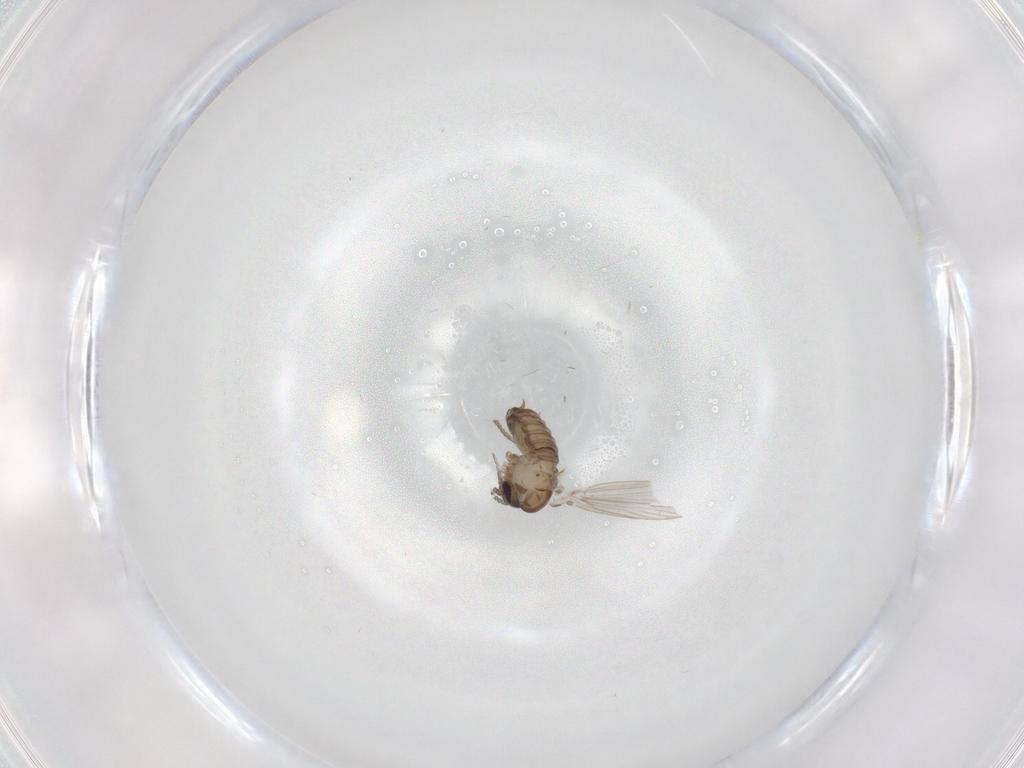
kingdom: Animalia
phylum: Arthropoda
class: Insecta
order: Diptera
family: Psychodidae
